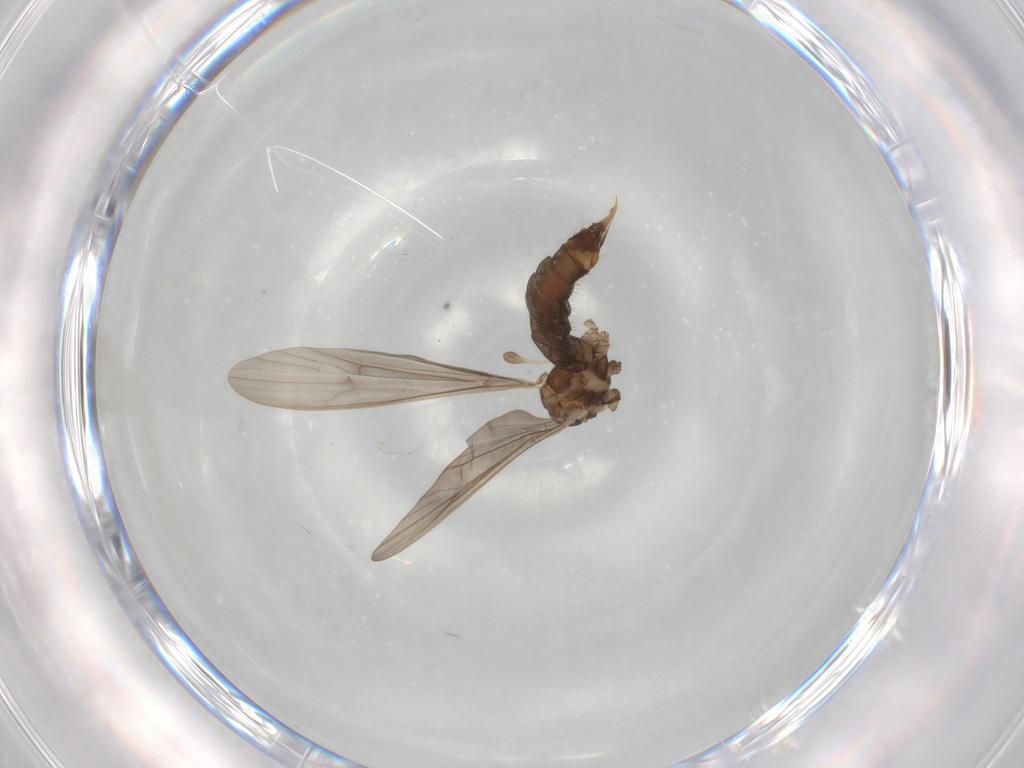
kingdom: Animalia
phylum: Arthropoda
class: Insecta
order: Diptera
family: Limoniidae
